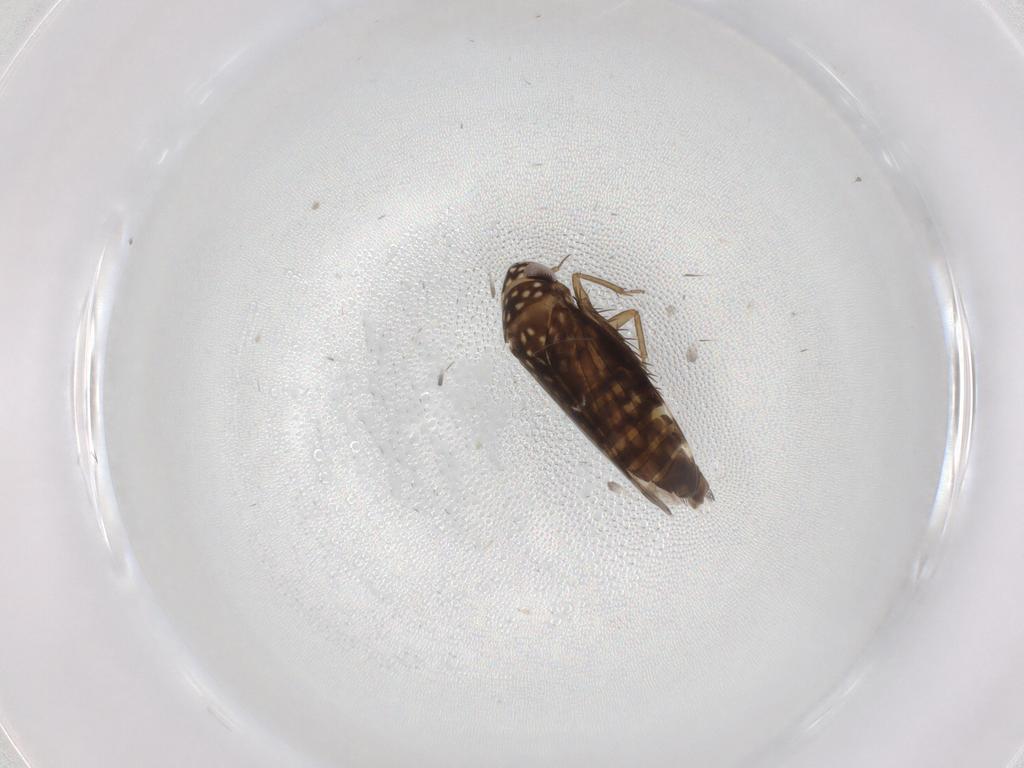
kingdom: Animalia
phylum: Arthropoda
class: Insecta
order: Hemiptera
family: Cicadellidae
